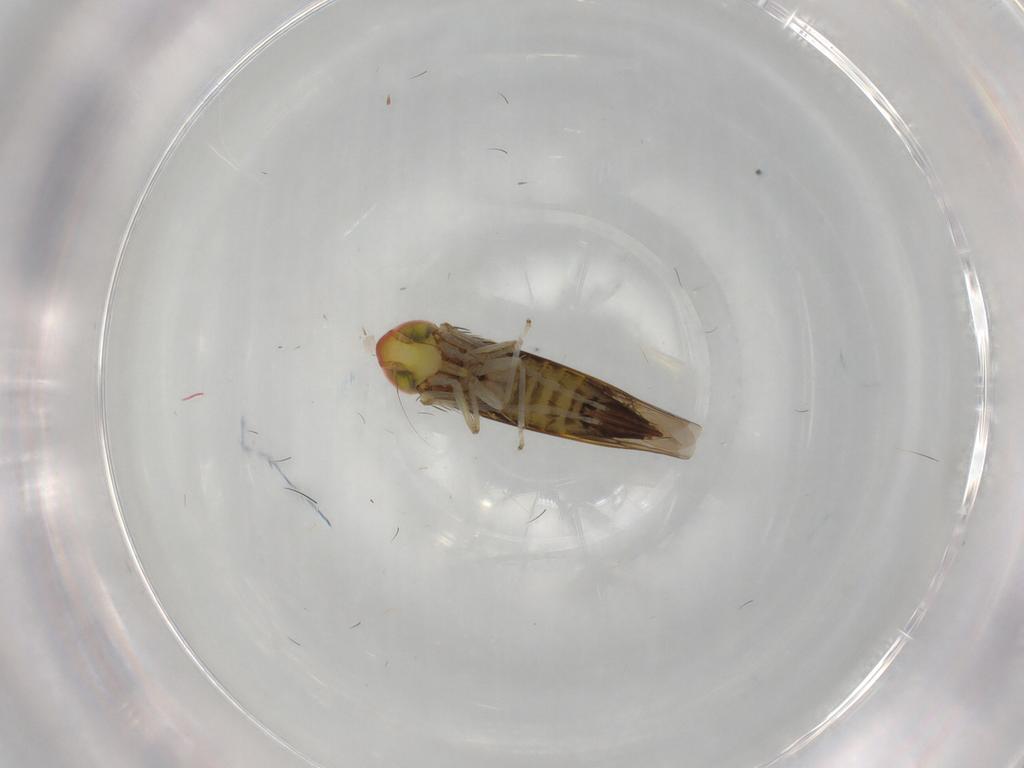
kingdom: Animalia
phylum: Arthropoda
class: Insecta
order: Hemiptera
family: Cicadellidae
